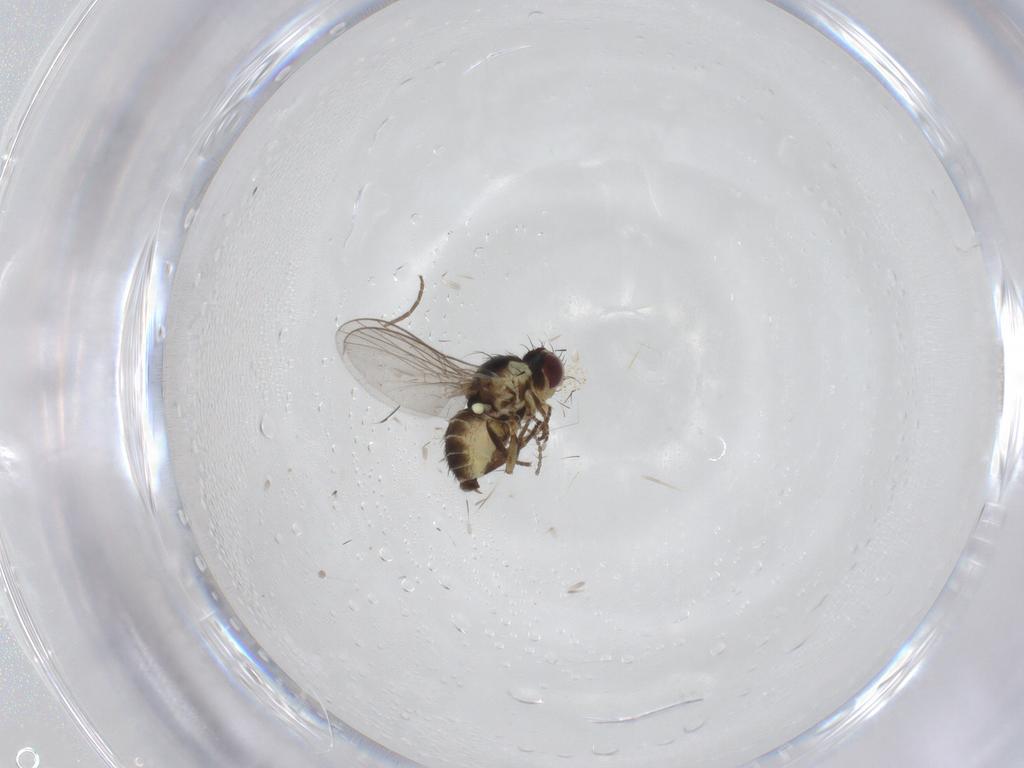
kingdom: Animalia
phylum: Arthropoda
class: Insecta
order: Diptera
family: Agromyzidae
